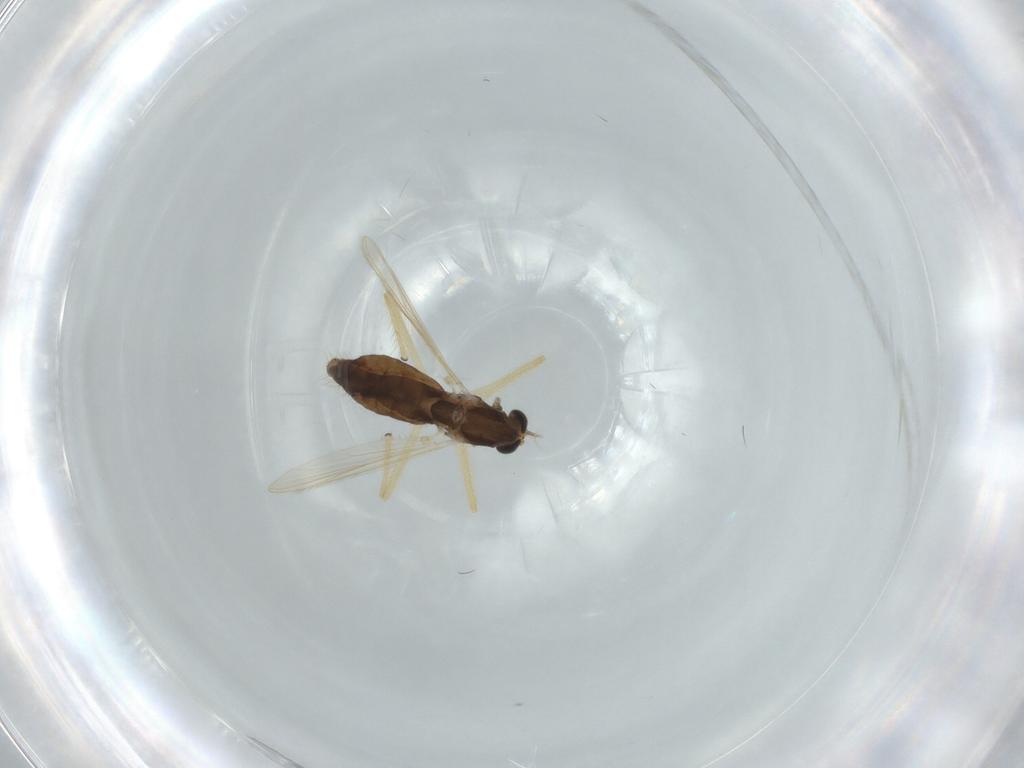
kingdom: Animalia
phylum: Arthropoda
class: Insecta
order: Diptera
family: Chironomidae
